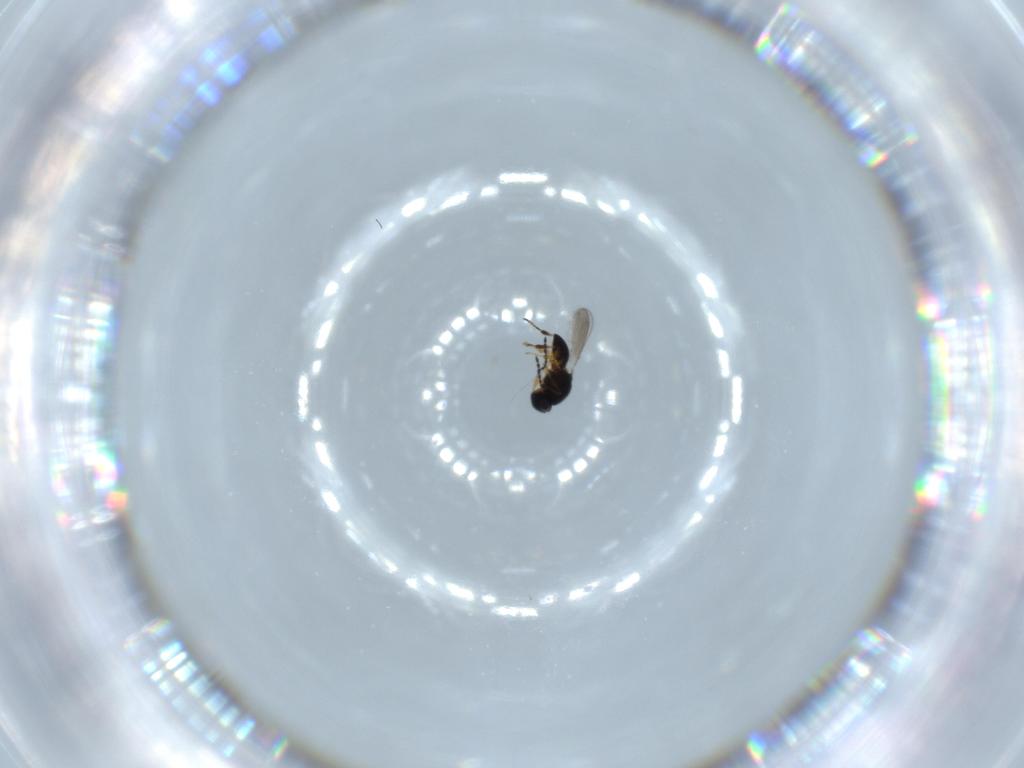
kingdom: Animalia
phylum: Arthropoda
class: Insecta
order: Hymenoptera
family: Platygastridae
